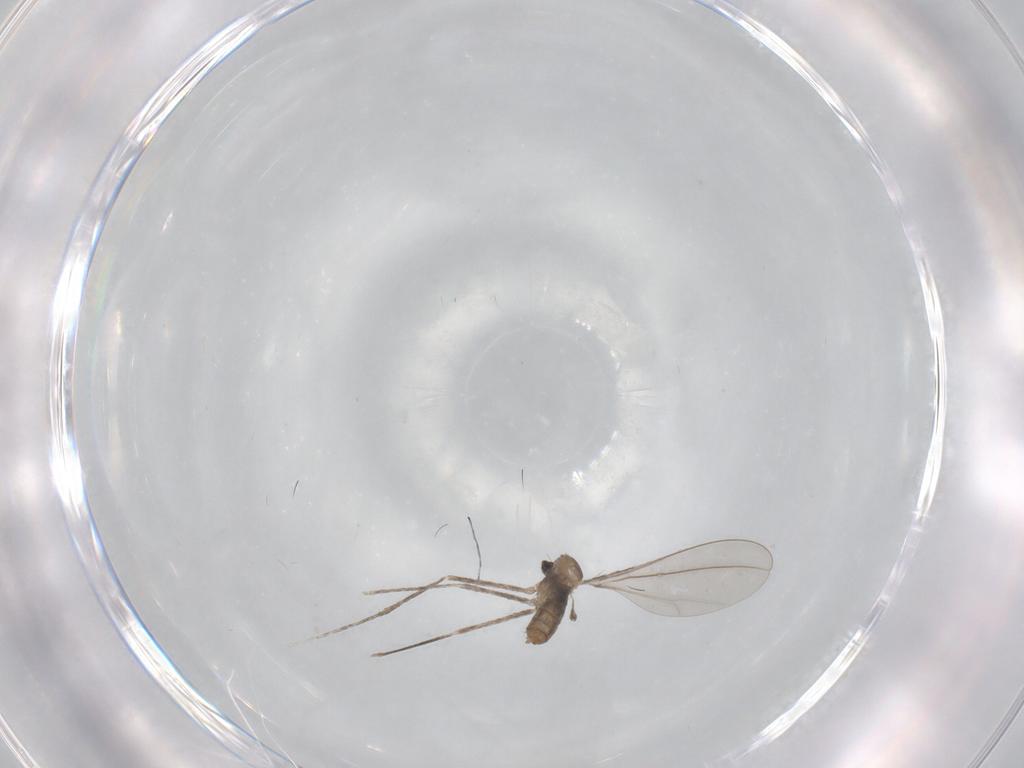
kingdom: Animalia
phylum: Arthropoda
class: Insecta
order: Diptera
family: Cecidomyiidae
